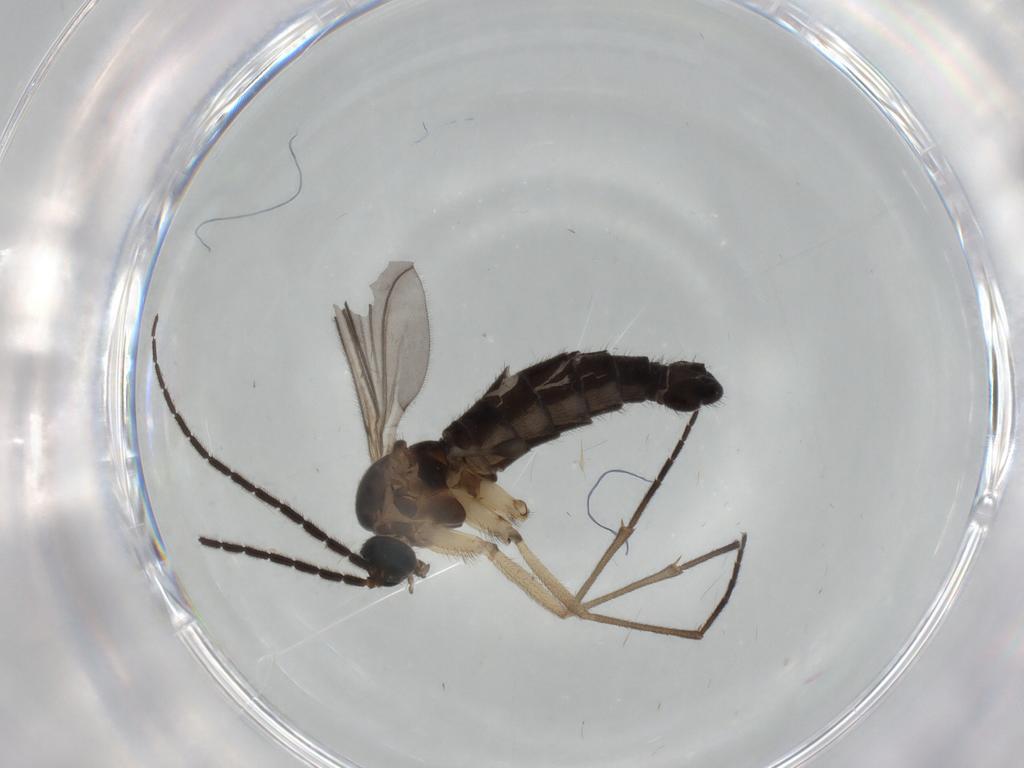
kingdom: Animalia
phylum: Arthropoda
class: Insecta
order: Diptera
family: Sciaridae
